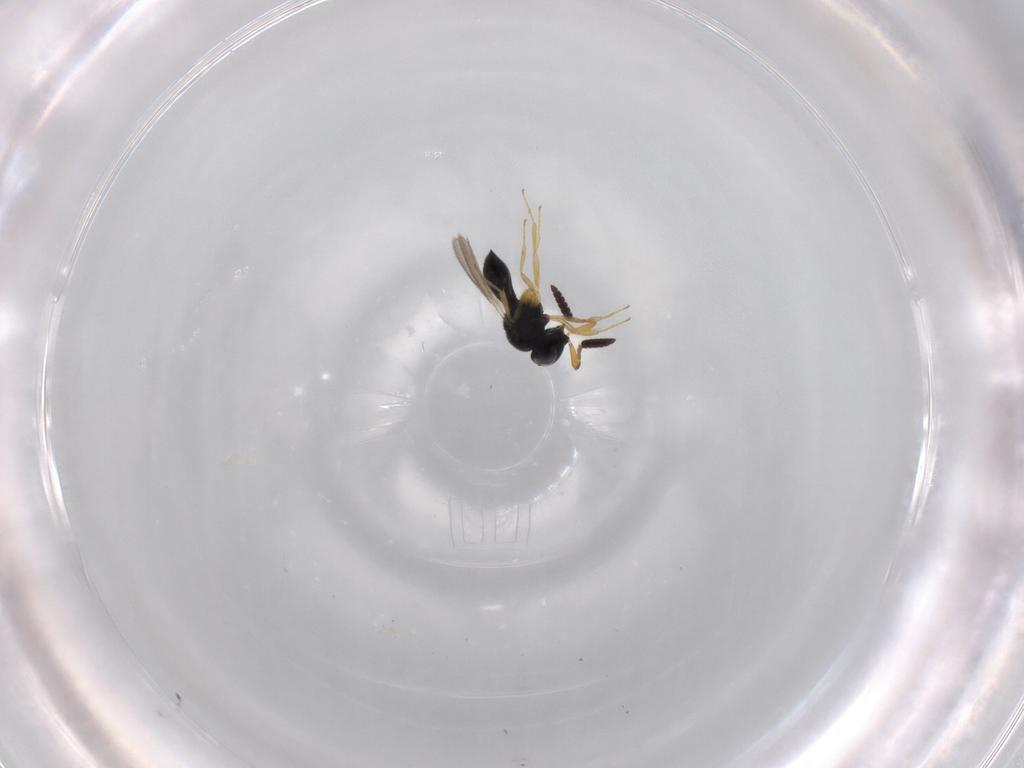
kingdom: Animalia
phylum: Arthropoda
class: Insecta
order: Hymenoptera
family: Scelionidae
